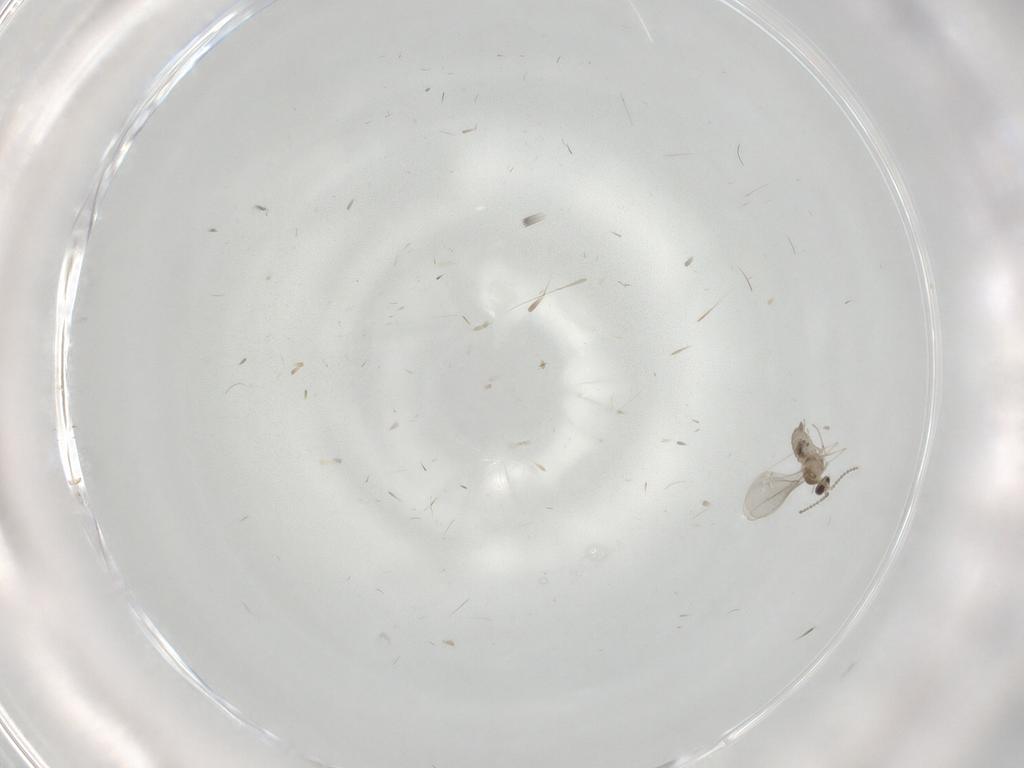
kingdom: Animalia
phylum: Arthropoda
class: Insecta
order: Diptera
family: Cecidomyiidae
